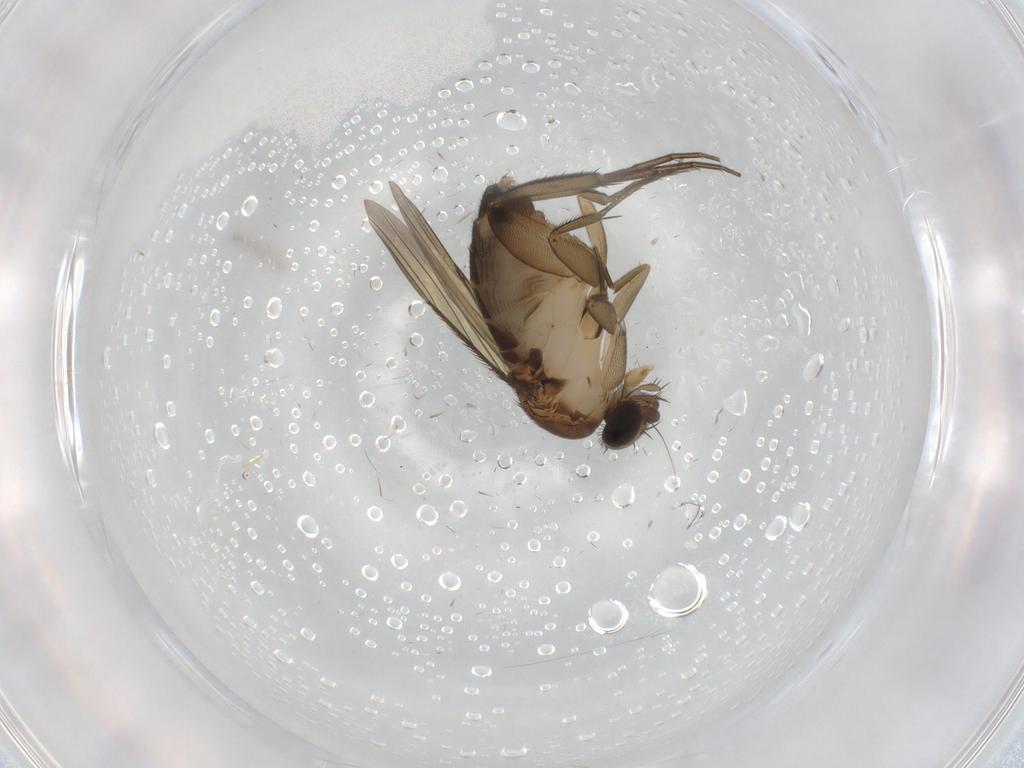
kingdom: Animalia
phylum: Arthropoda
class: Insecta
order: Diptera
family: Phoridae
